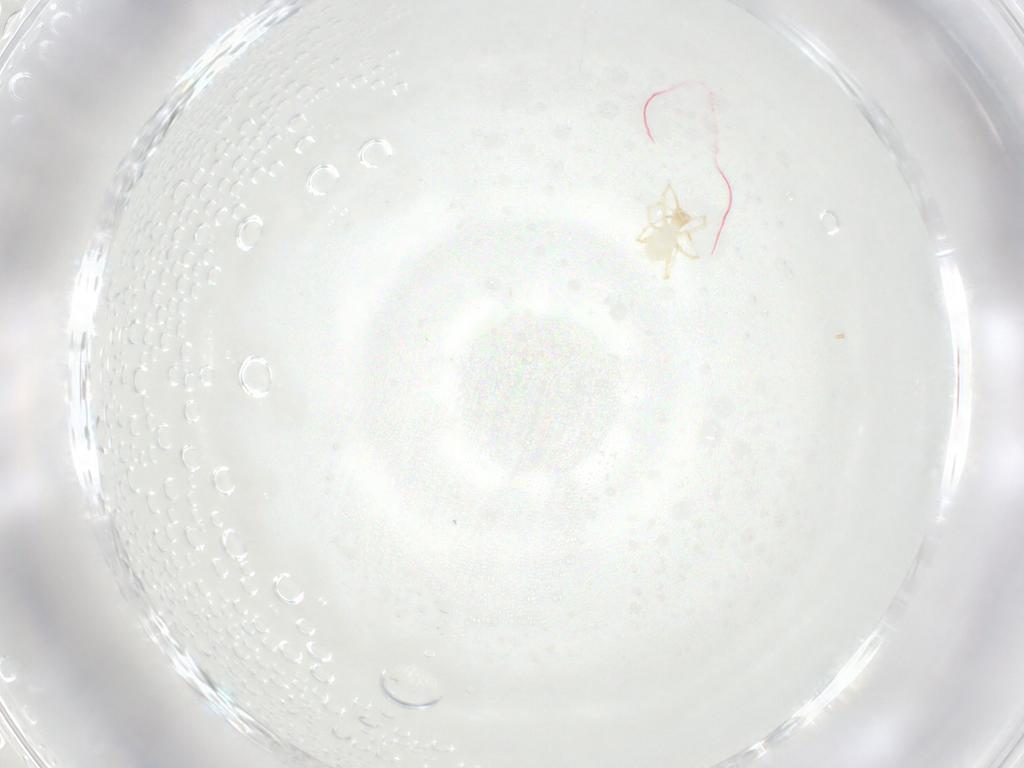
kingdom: Animalia
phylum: Arthropoda
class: Arachnida
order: Trombidiformes
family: Erythraeidae
